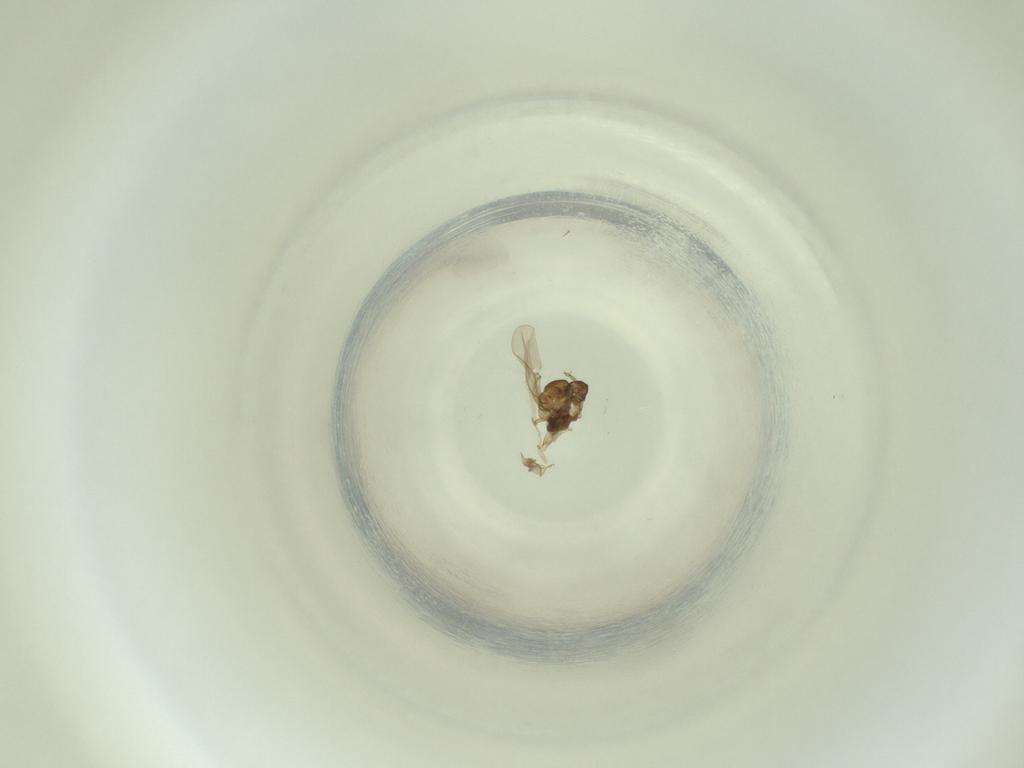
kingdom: Animalia
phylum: Arthropoda
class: Insecta
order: Diptera
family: Cecidomyiidae
